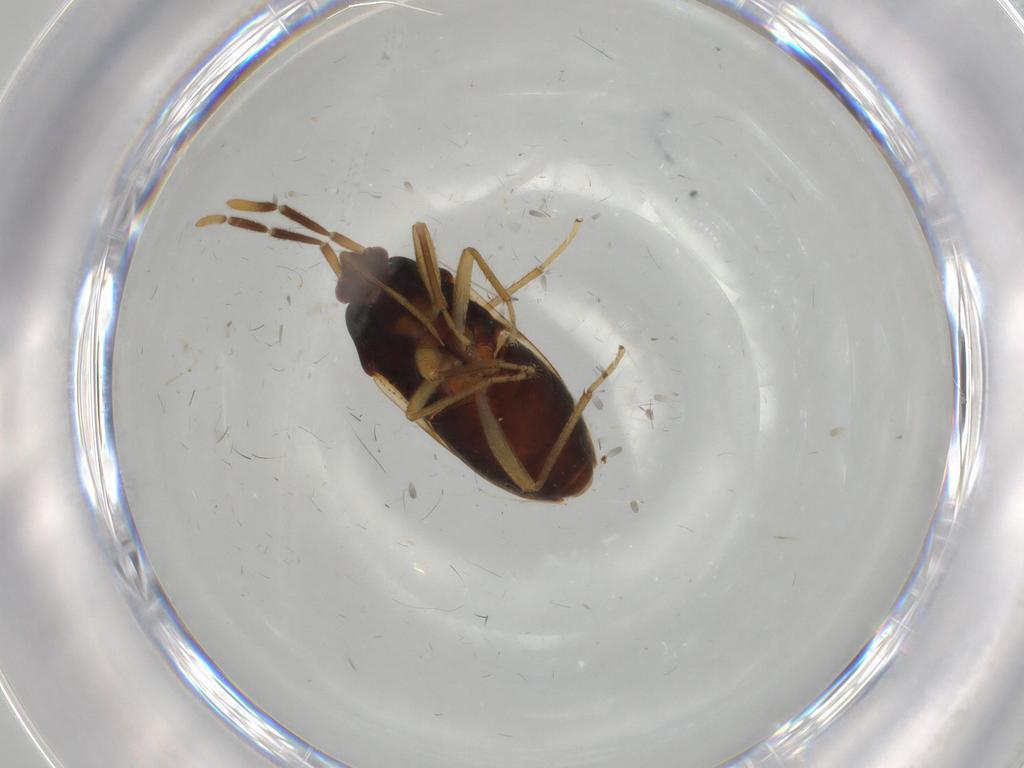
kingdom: Animalia
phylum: Arthropoda
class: Insecta
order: Hemiptera
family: Rhyparochromidae
